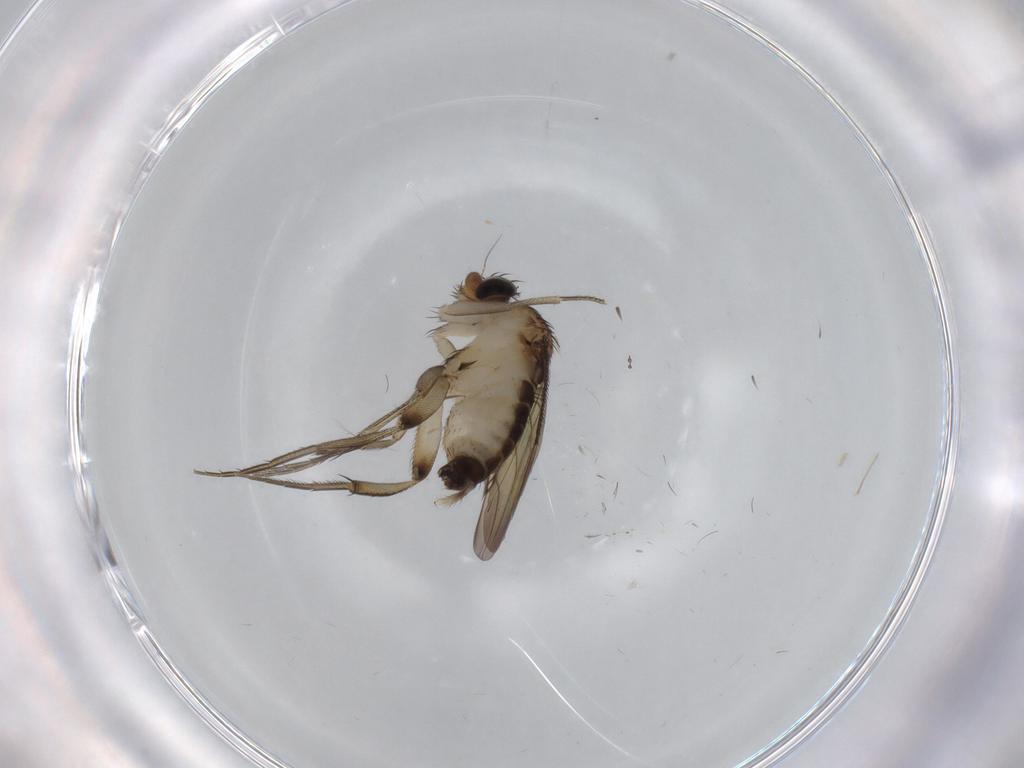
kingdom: Animalia
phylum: Arthropoda
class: Insecta
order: Diptera
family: Phoridae
